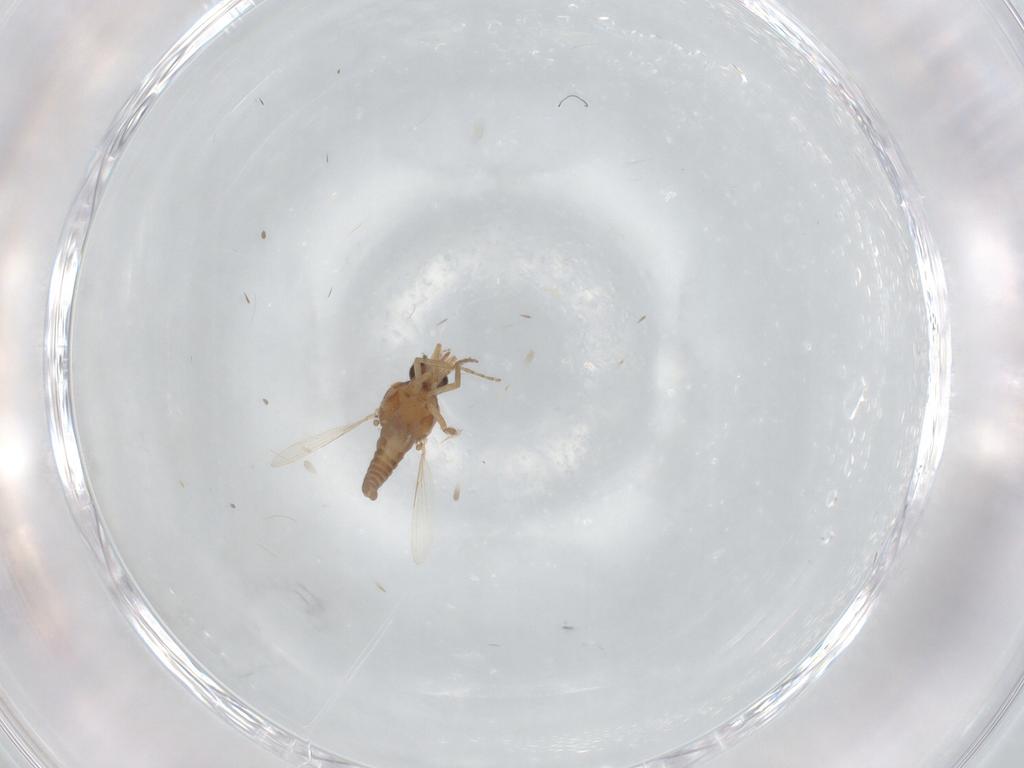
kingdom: Animalia
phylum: Arthropoda
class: Insecta
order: Diptera
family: Ceratopogonidae
